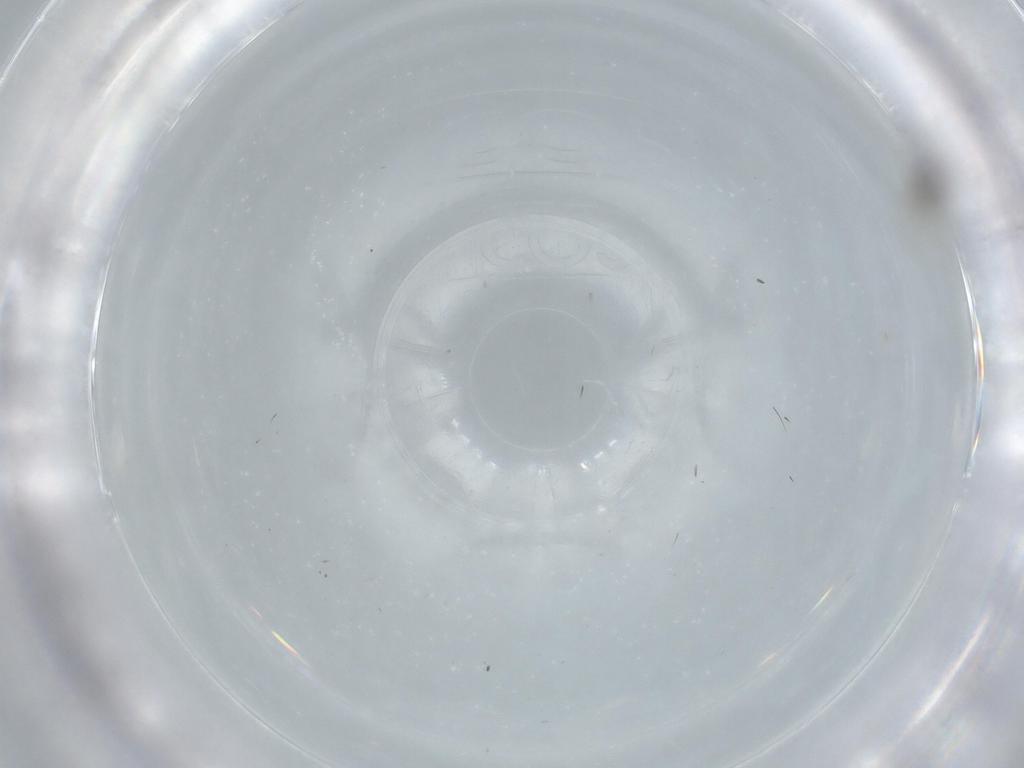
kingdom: Animalia
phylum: Arthropoda
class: Insecta
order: Diptera
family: Cecidomyiidae
